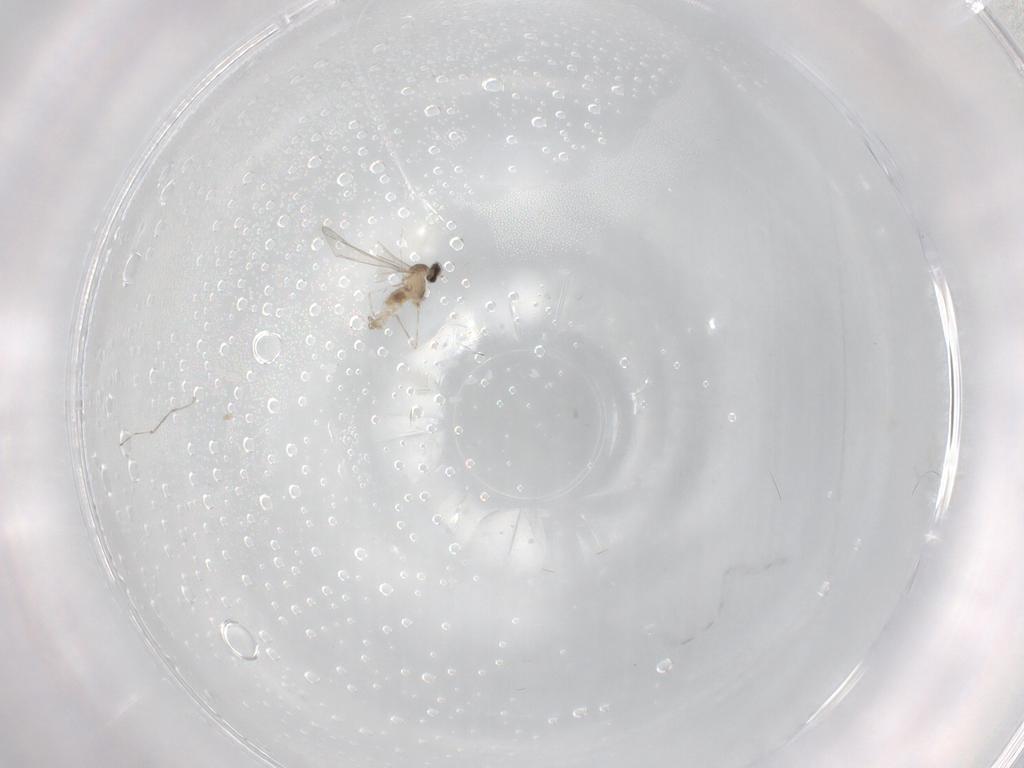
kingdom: Animalia
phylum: Arthropoda
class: Insecta
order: Diptera
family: Cecidomyiidae
